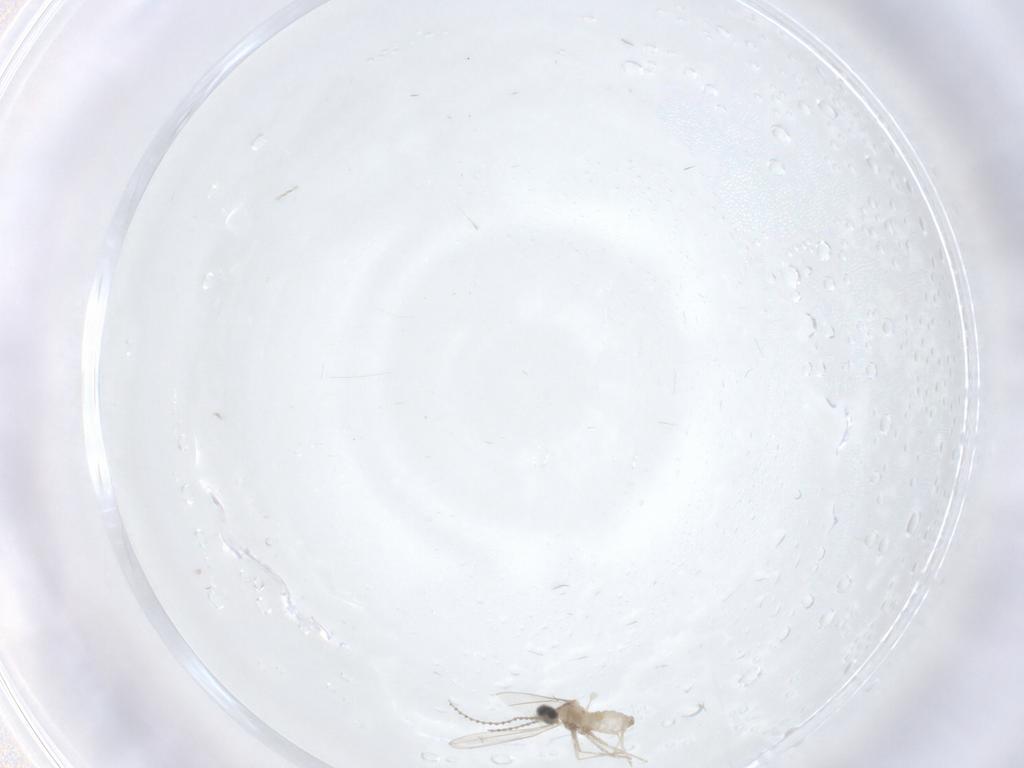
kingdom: Animalia
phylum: Arthropoda
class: Insecta
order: Diptera
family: Cecidomyiidae
